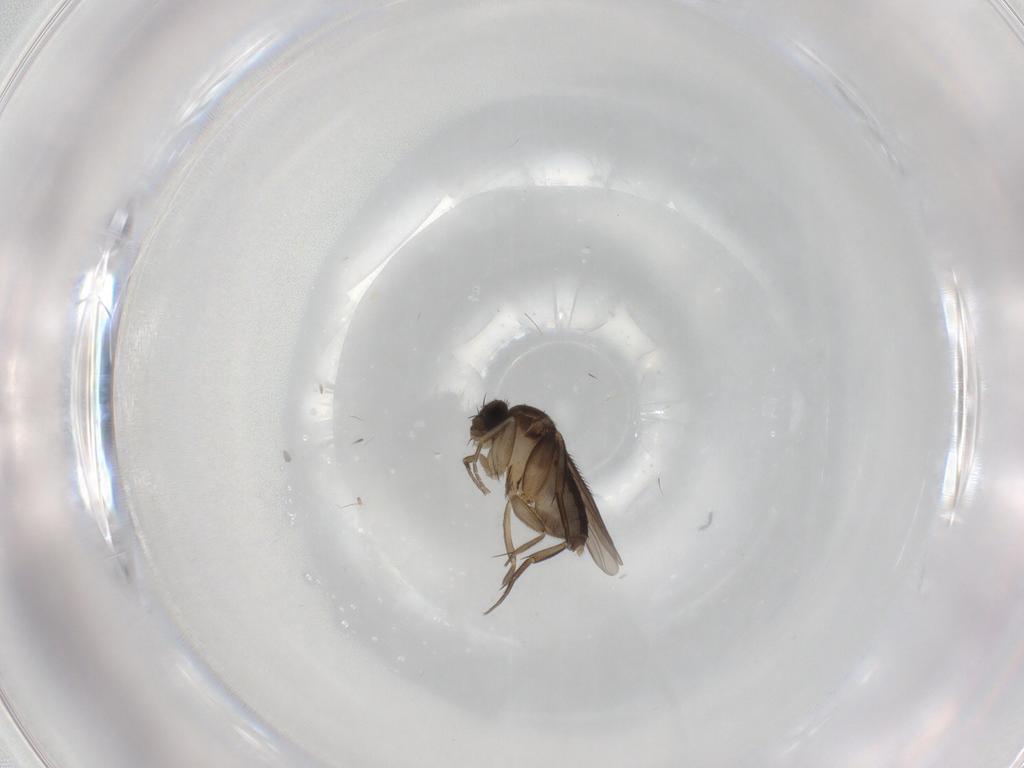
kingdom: Animalia
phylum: Arthropoda
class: Insecta
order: Diptera
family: Phoridae
